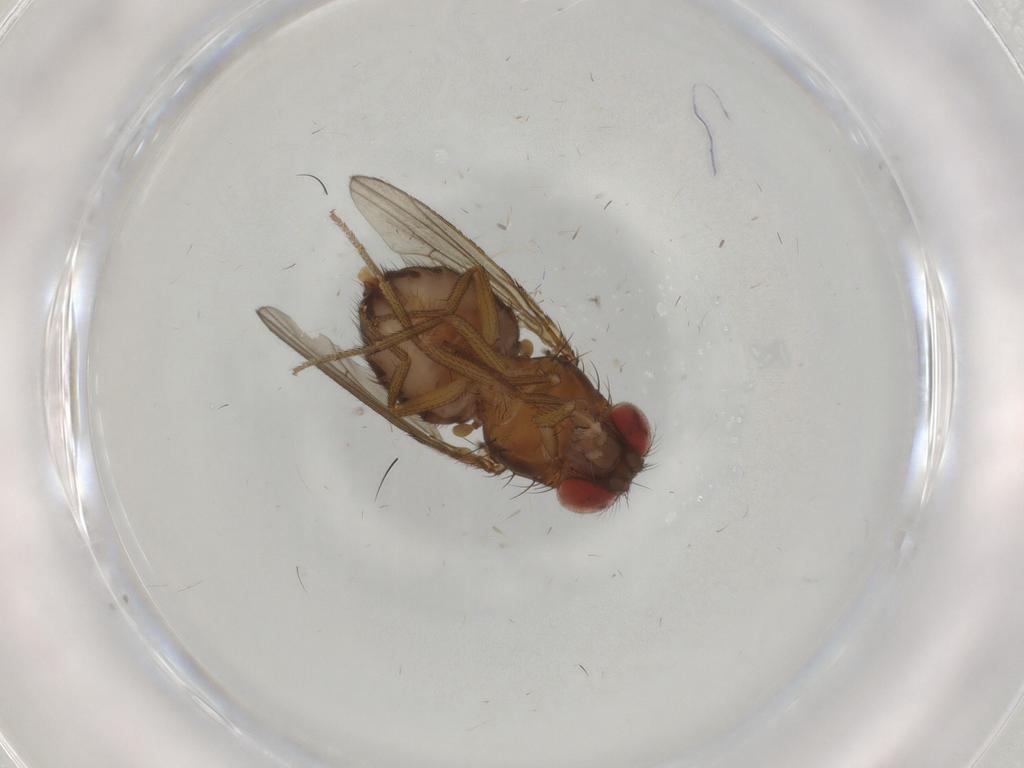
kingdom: Animalia
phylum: Arthropoda
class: Insecta
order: Diptera
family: Drosophilidae
